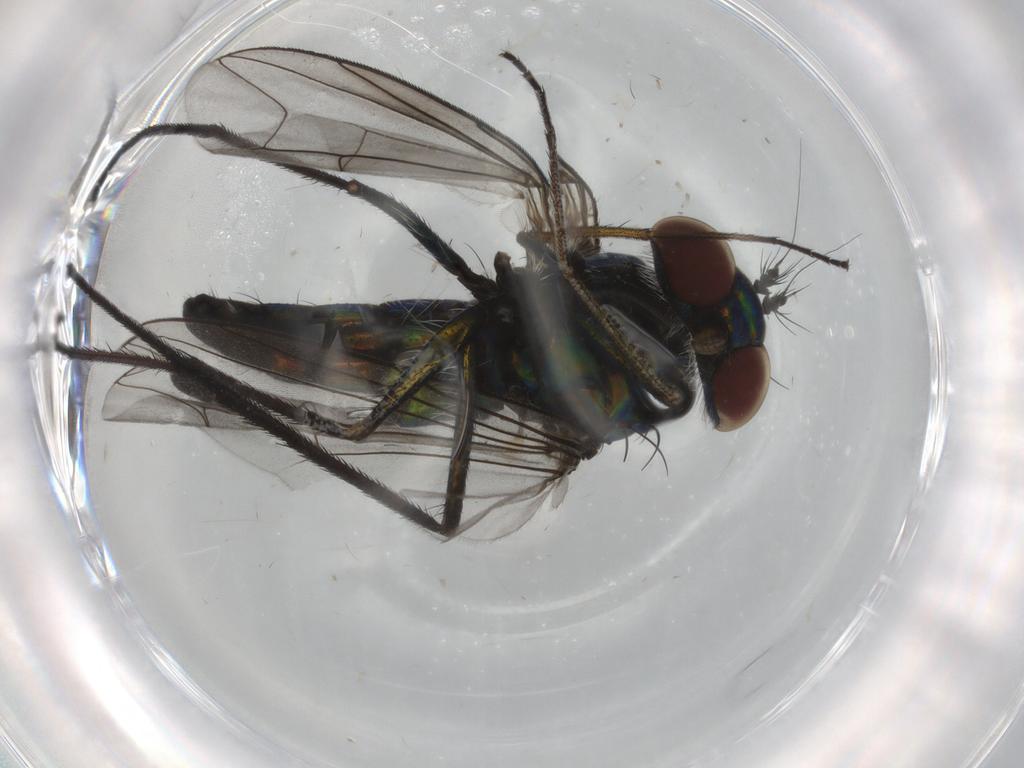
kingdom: Animalia
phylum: Arthropoda
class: Insecta
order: Diptera
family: Dolichopodidae
